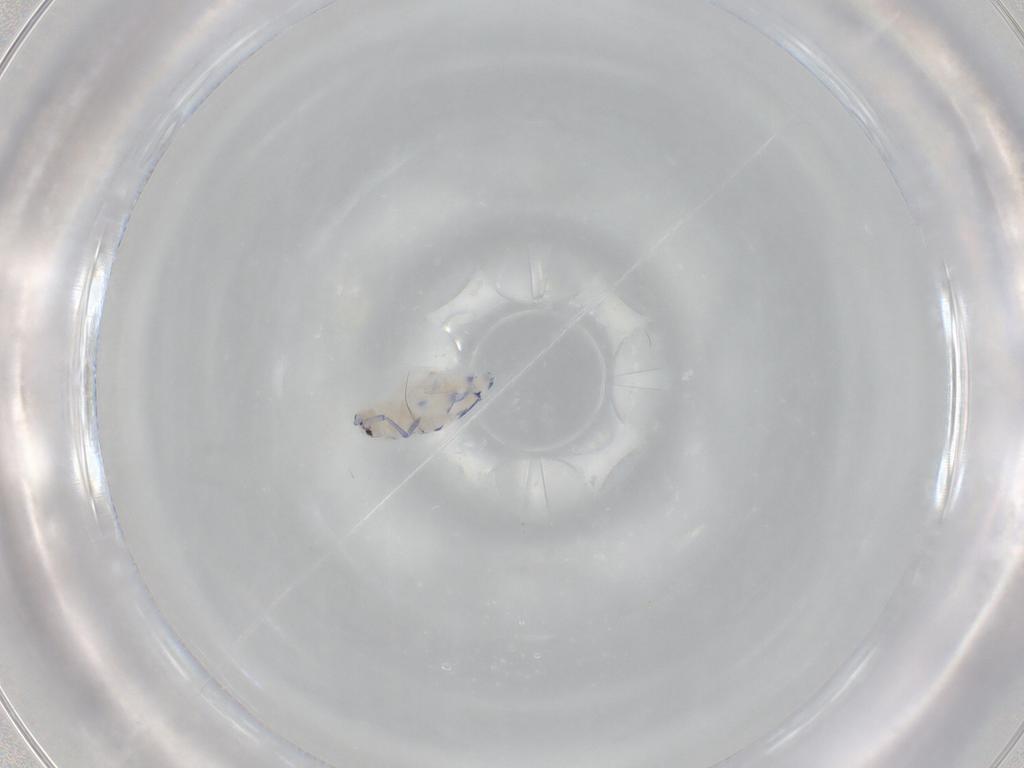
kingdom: Animalia
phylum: Arthropoda
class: Collembola
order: Entomobryomorpha
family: Entomobryidae
